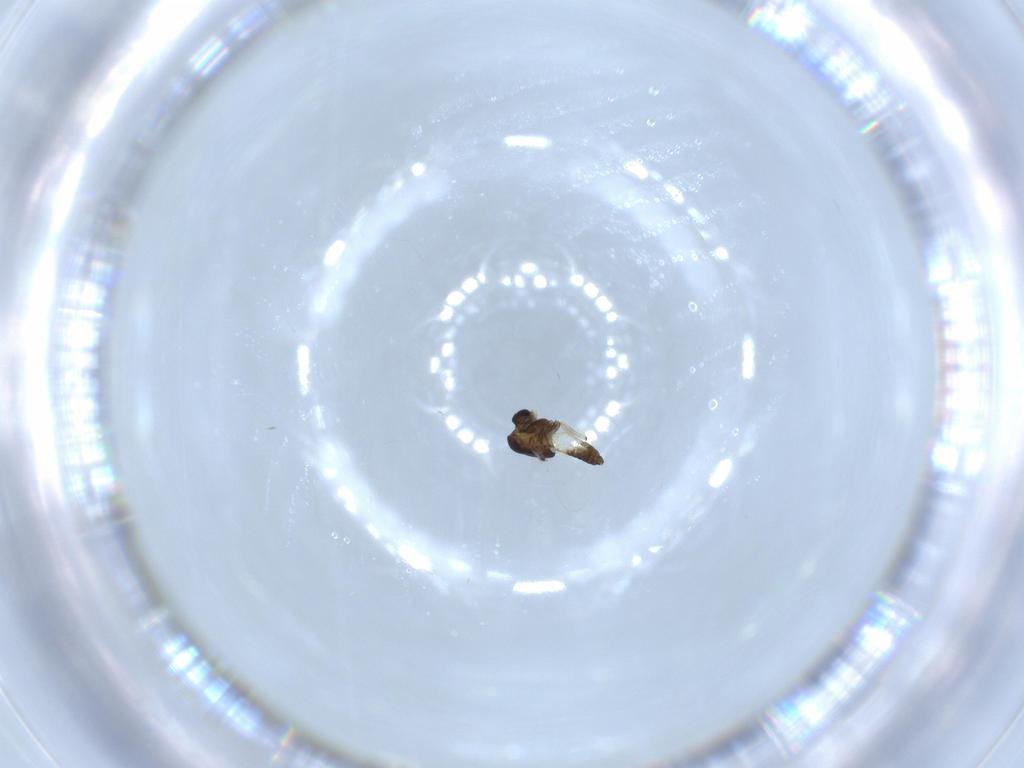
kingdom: Animalia
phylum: Arthropoda
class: Insecta
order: Diptera
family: Chironomidae
